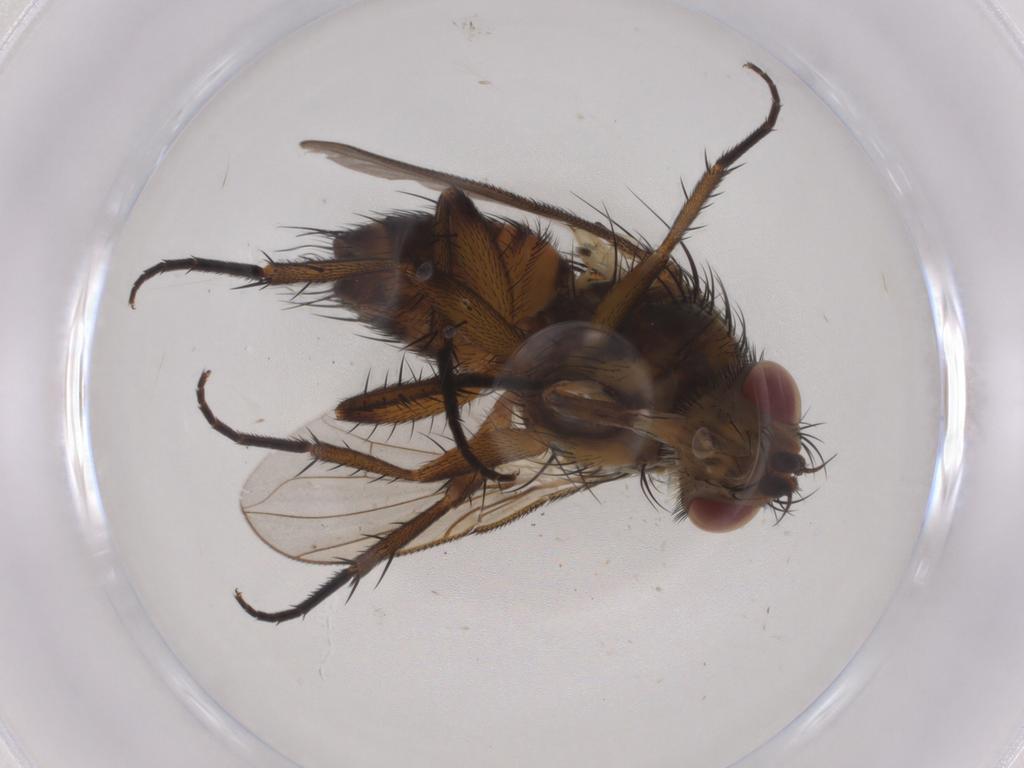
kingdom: Animalia
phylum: Arthropoda
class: Insecta
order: Diptera
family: Tachinidae
